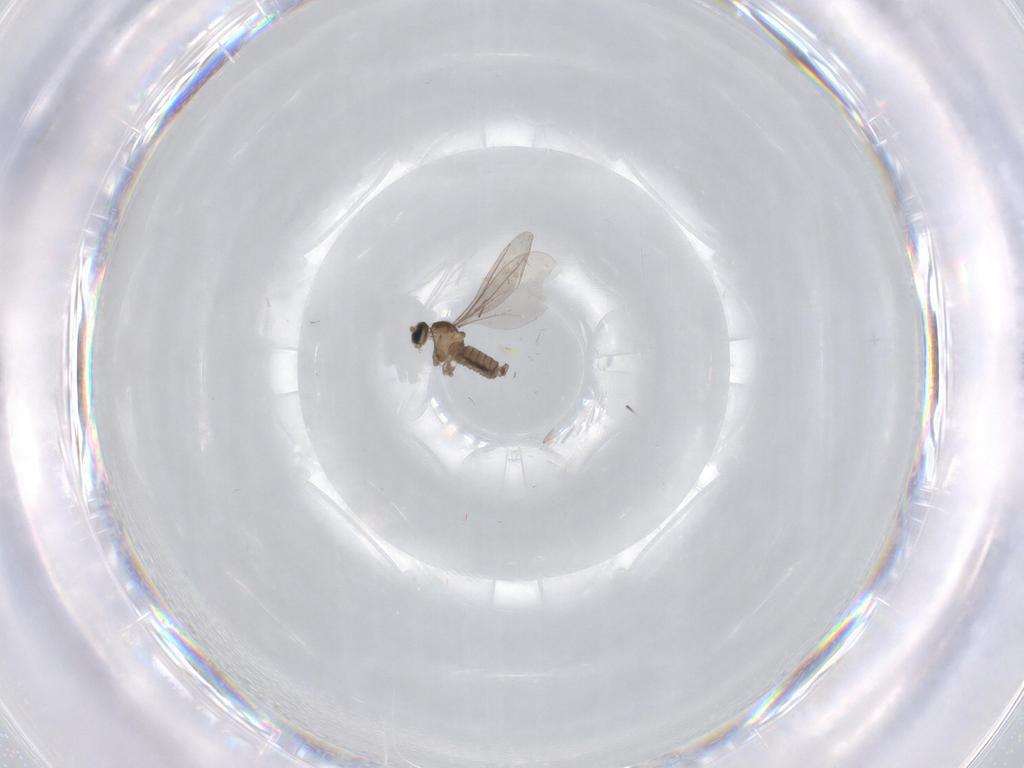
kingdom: Animalia
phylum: Arthropoda
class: Insecta
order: Diptera
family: Cecidomyiidae
